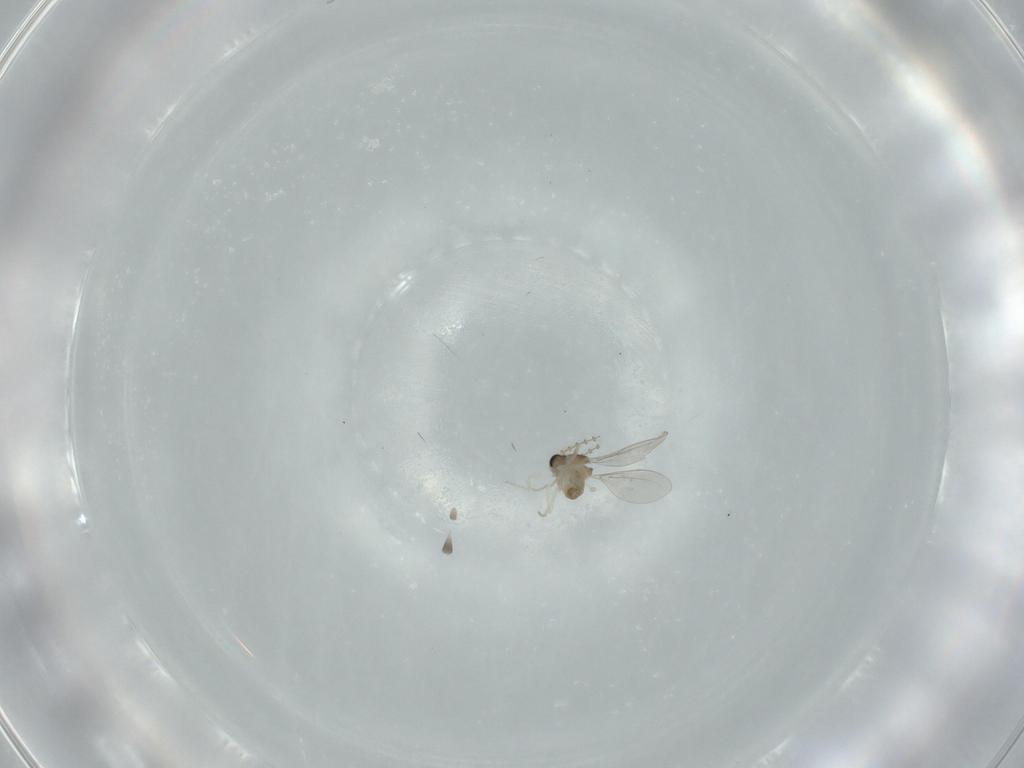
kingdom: Animalia
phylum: Arthropoda
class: Insecta
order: Diptera
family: Cecidomyiidae
